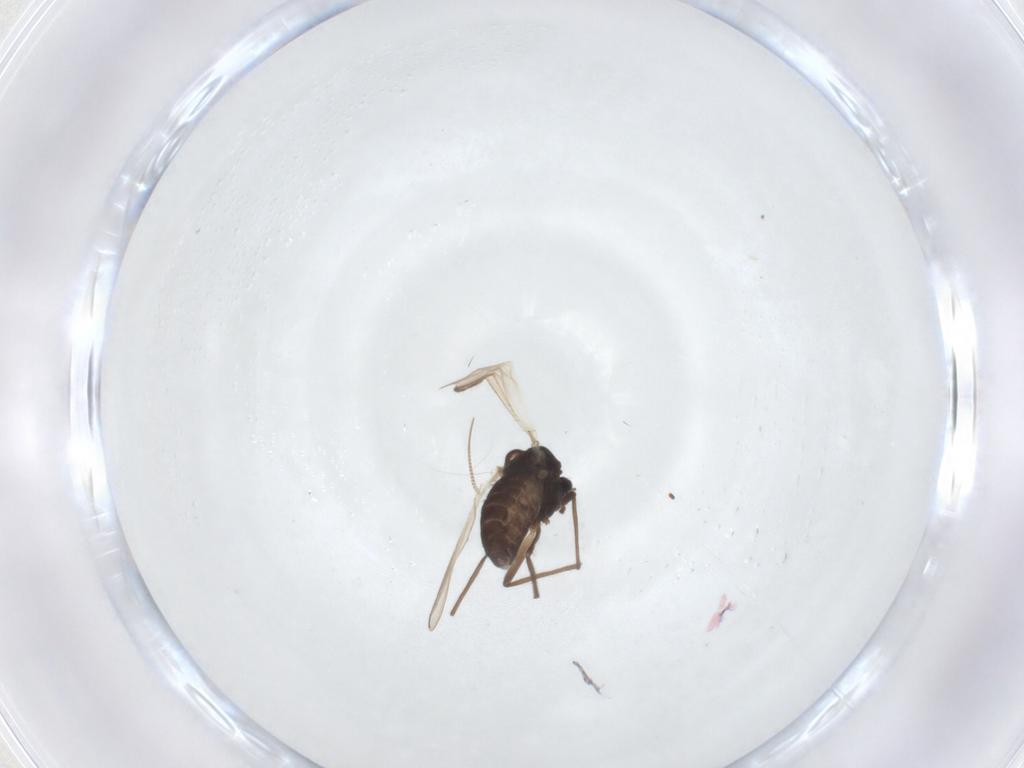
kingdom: Animalia
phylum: Arthropoda
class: Insecta
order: Diptera
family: Chironomidae
